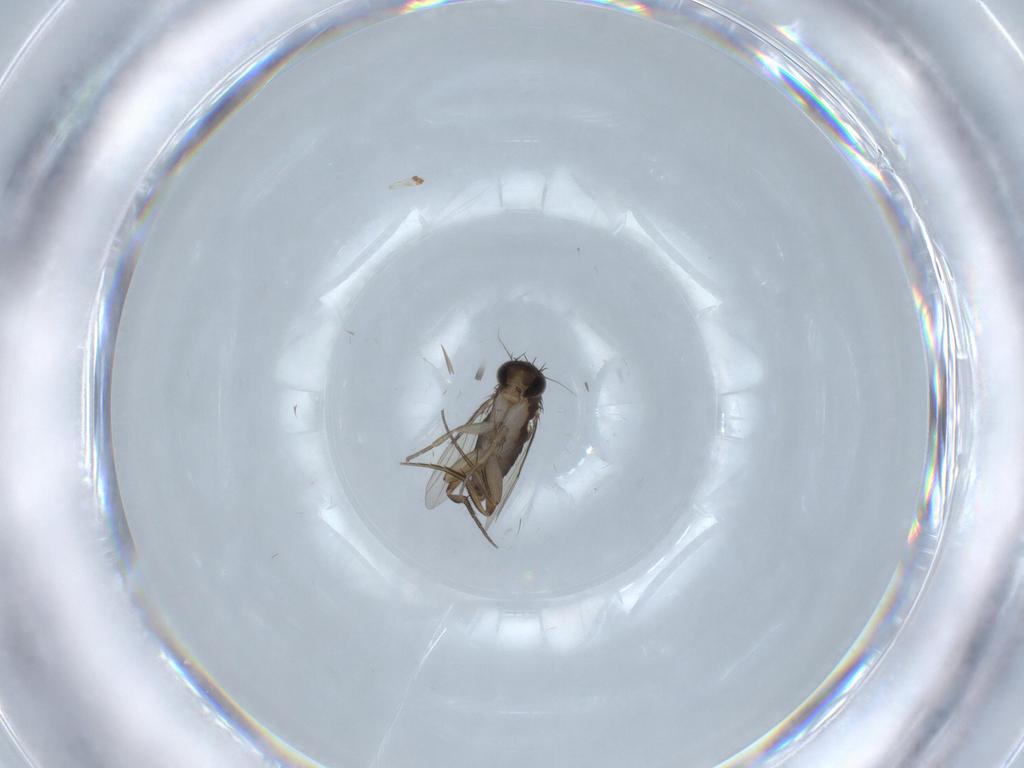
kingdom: Animalia
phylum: Arthropoda
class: Insecta
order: Diptera
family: Phoridae
